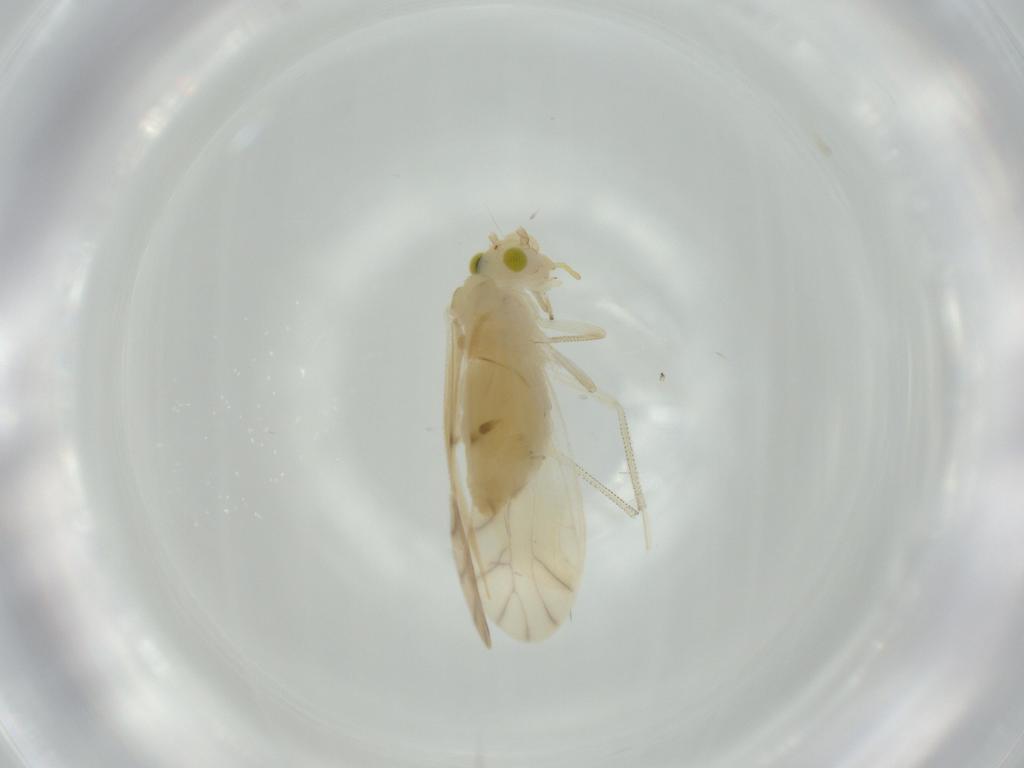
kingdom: Animalia
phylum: Arthropoda
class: Insecta
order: Psocodea
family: Caeciliusidae
